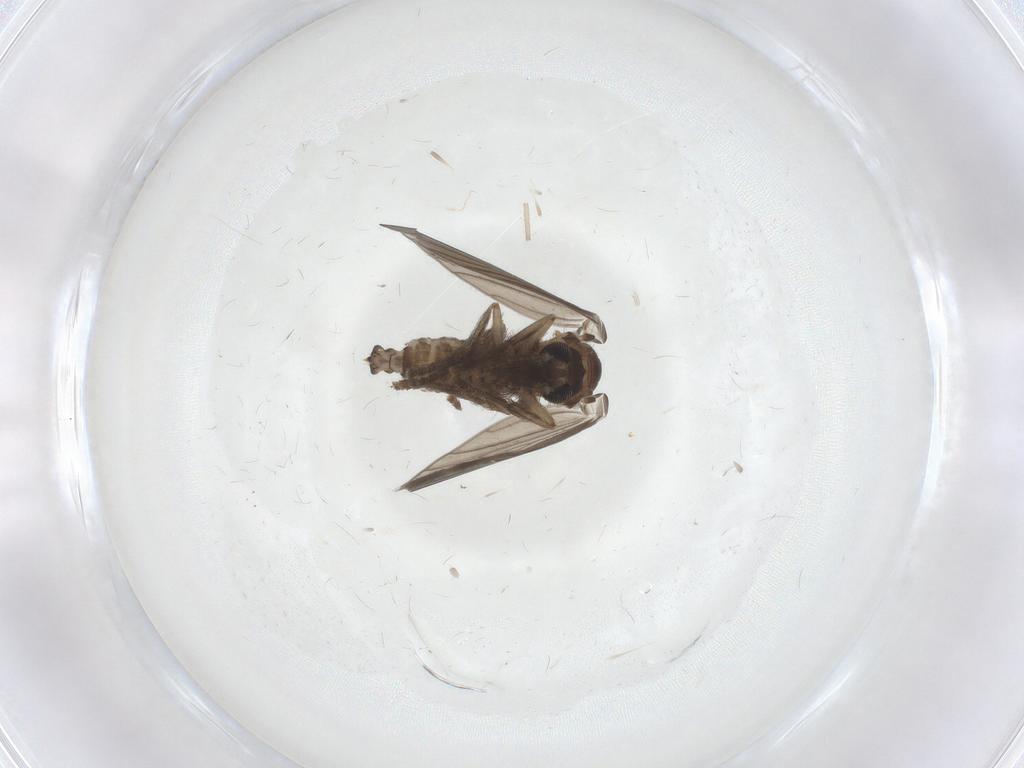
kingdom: Animalia
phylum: Arthropoda
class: Insecta
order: Diptera
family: Psychodidae
